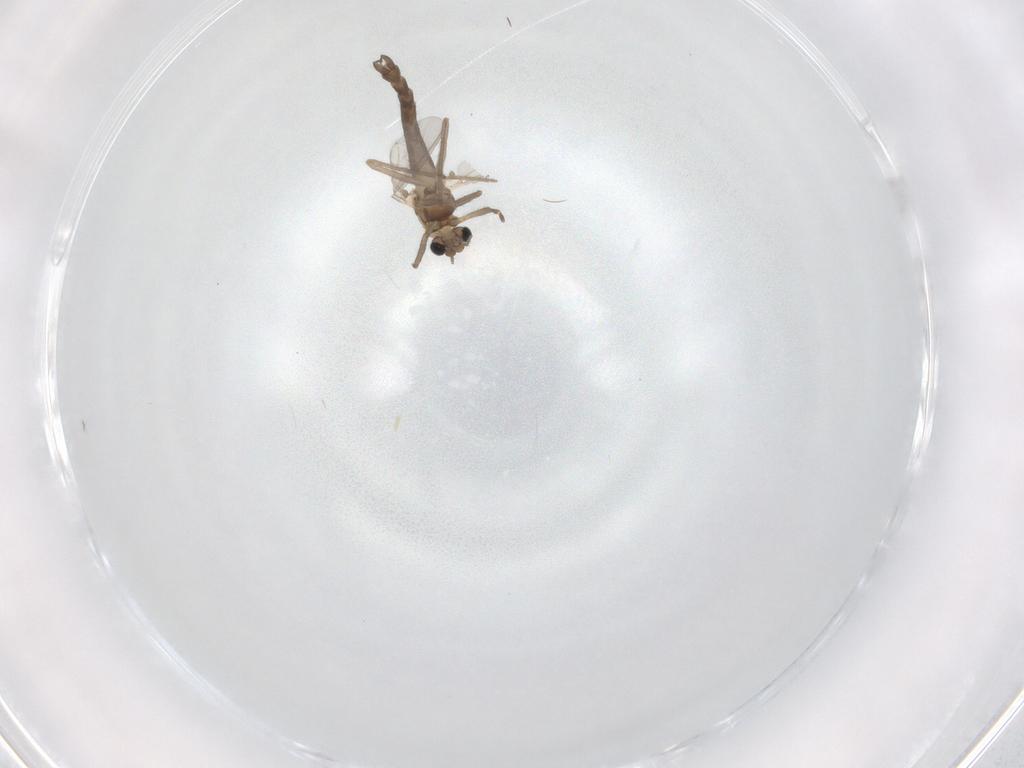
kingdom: Animalia
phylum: Arthropoda
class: Insecta
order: Diptera
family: Chironomidae
